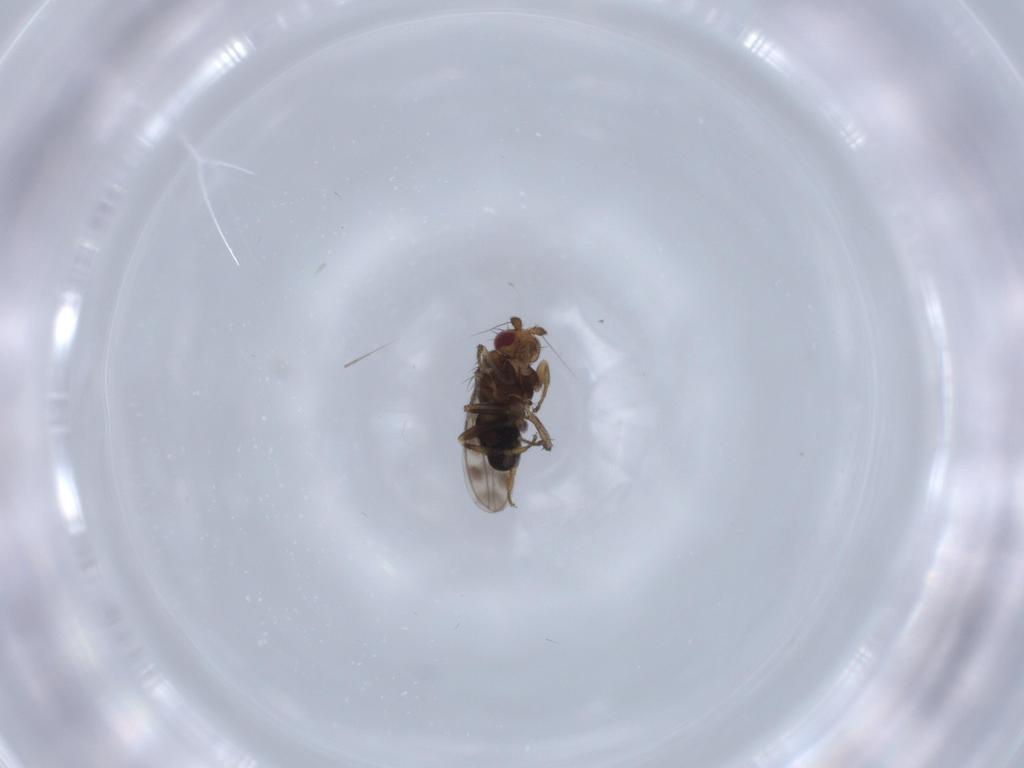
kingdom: Animalia
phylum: Arthropoda
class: Insecta
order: Diptera
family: Sphaeroceridae
